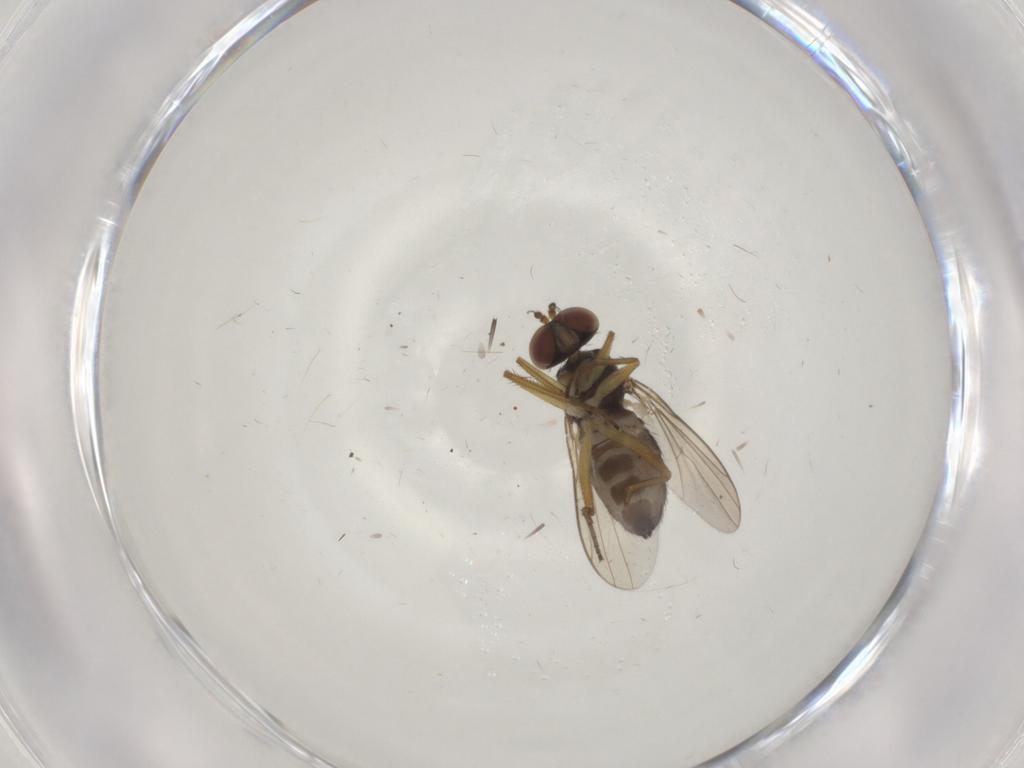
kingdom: Animalia
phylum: Arthropoda
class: Insecta
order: Diptera
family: Dolichopodidae
